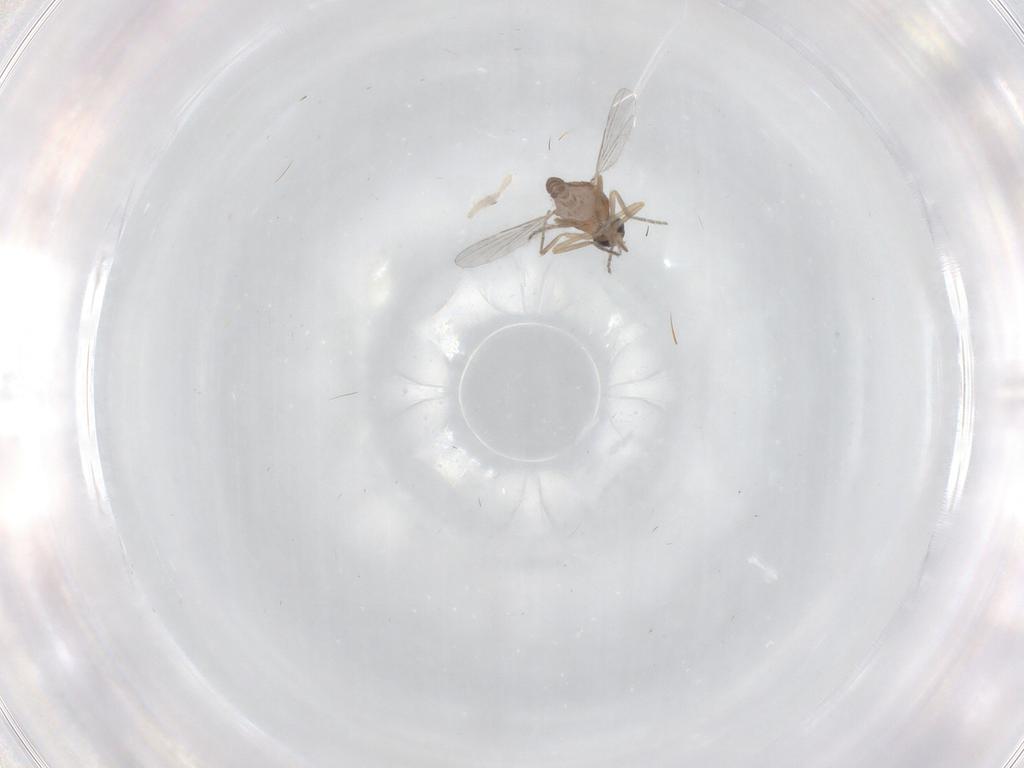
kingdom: Animalia
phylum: Arthropoda
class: Insecta
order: Diptera
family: Ceratopogonidae
